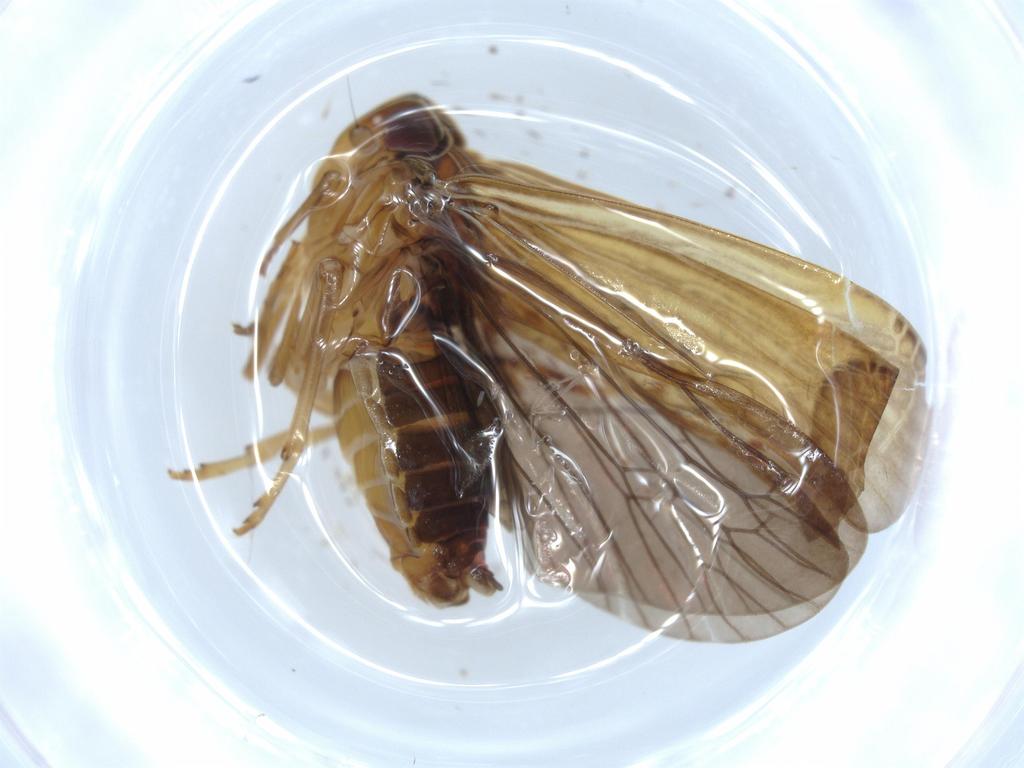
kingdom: Animalia
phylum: Arthropoda
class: Insecta
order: Hemiptera
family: Achilidae
